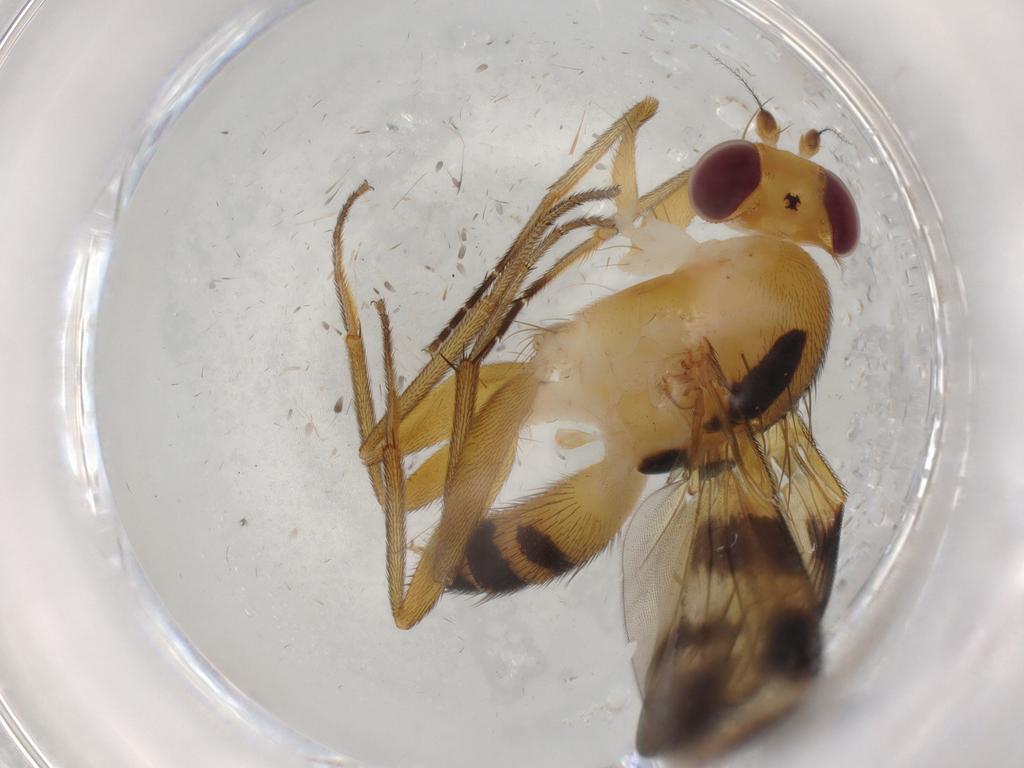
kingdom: Animalia
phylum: Arthropoda
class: Insecta
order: Diptera
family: Clusiidae
